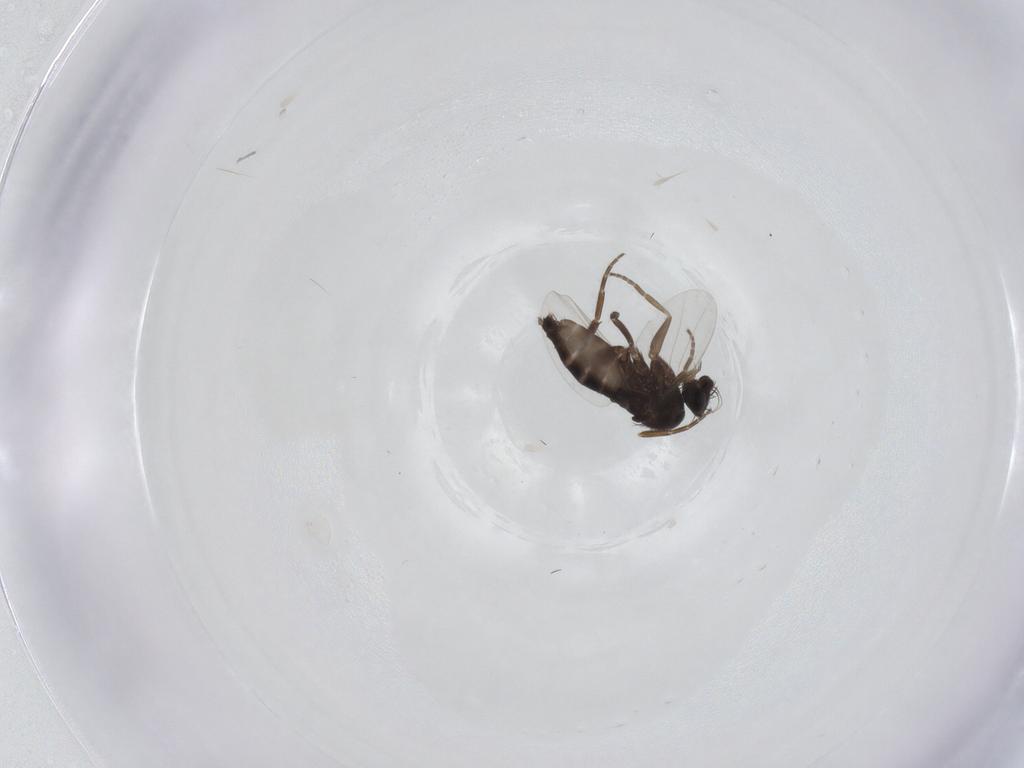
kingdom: Animalia
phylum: Arthropoda
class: Insecta
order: Diptera
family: Phoridae
